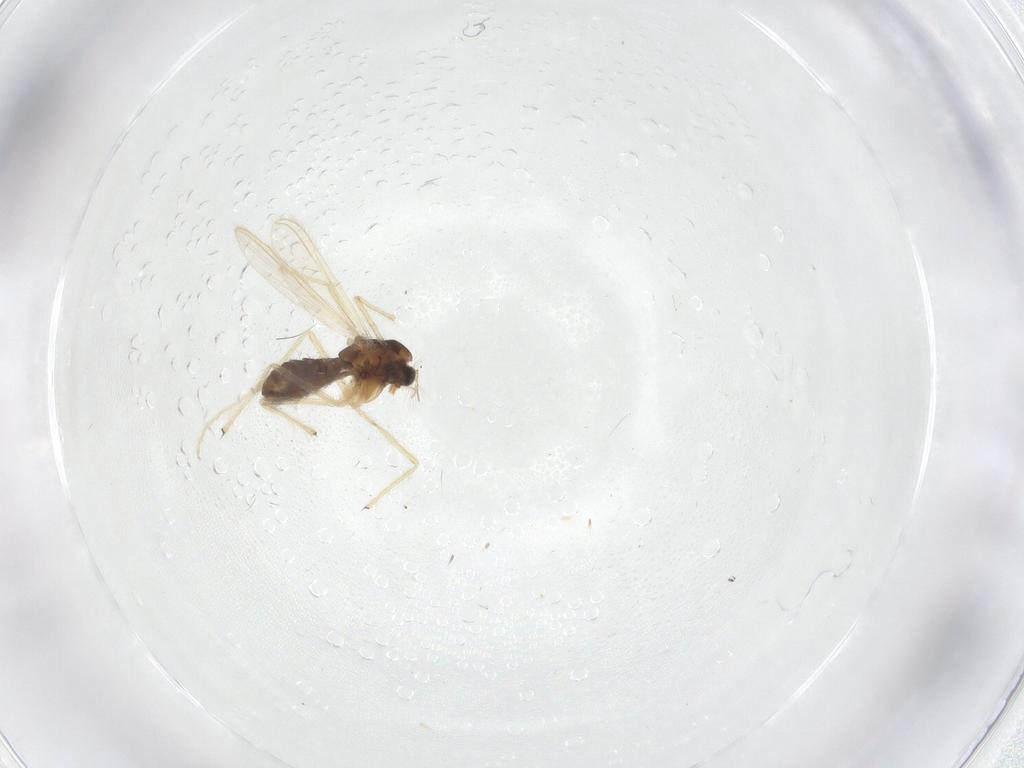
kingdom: Animalia
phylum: Arthropoda
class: Insecta
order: Diptera
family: Chironomidae
